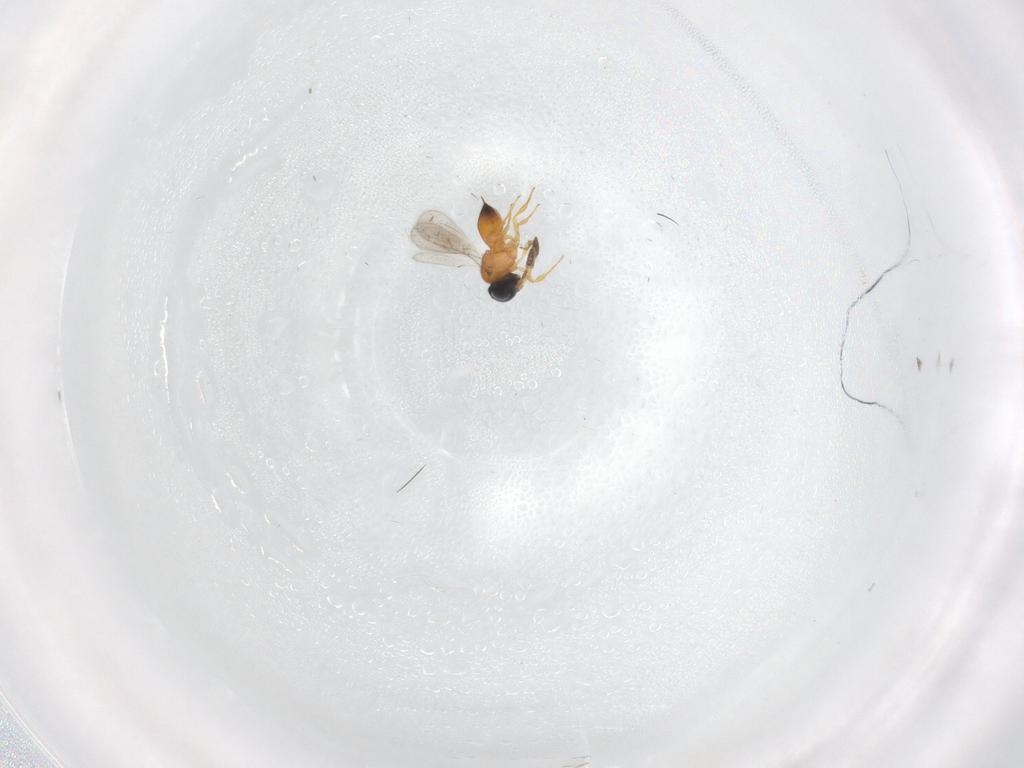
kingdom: Animalia
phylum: Arthropoda
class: Insecta
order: Hymenoptera
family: Scelionidae
